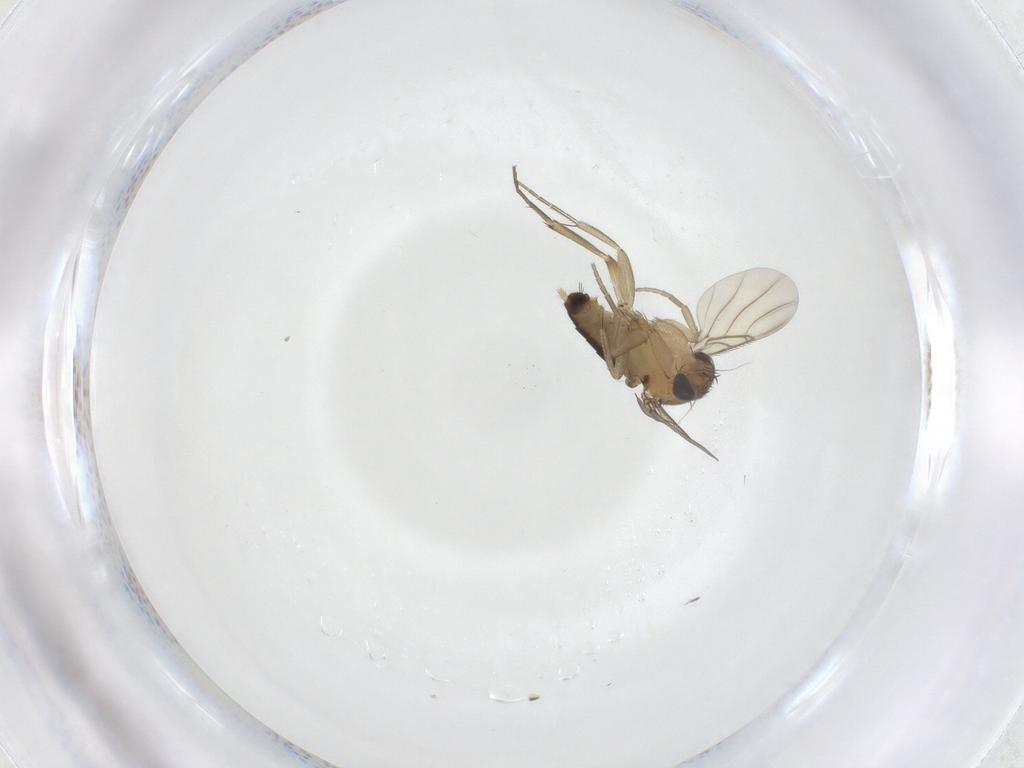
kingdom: Animalia
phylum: Arthropoda
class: Insecta
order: Diptera
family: Phoridae
